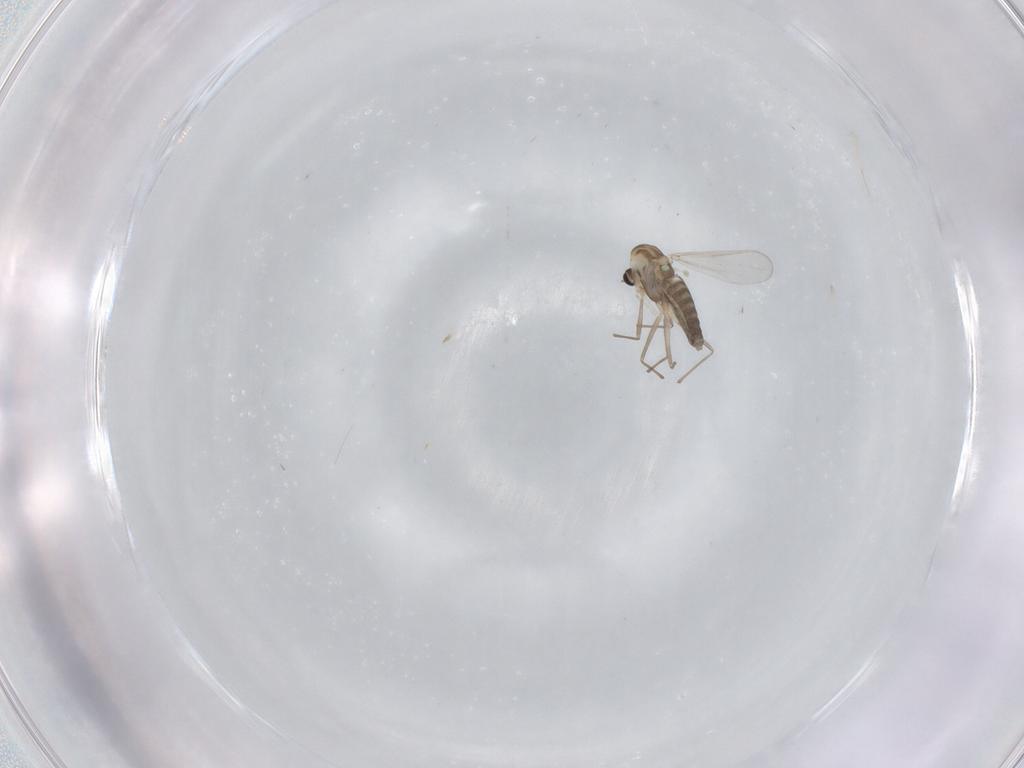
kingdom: Animalia
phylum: Arthropoda
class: Insecta
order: Diptera
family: Chironomidae
